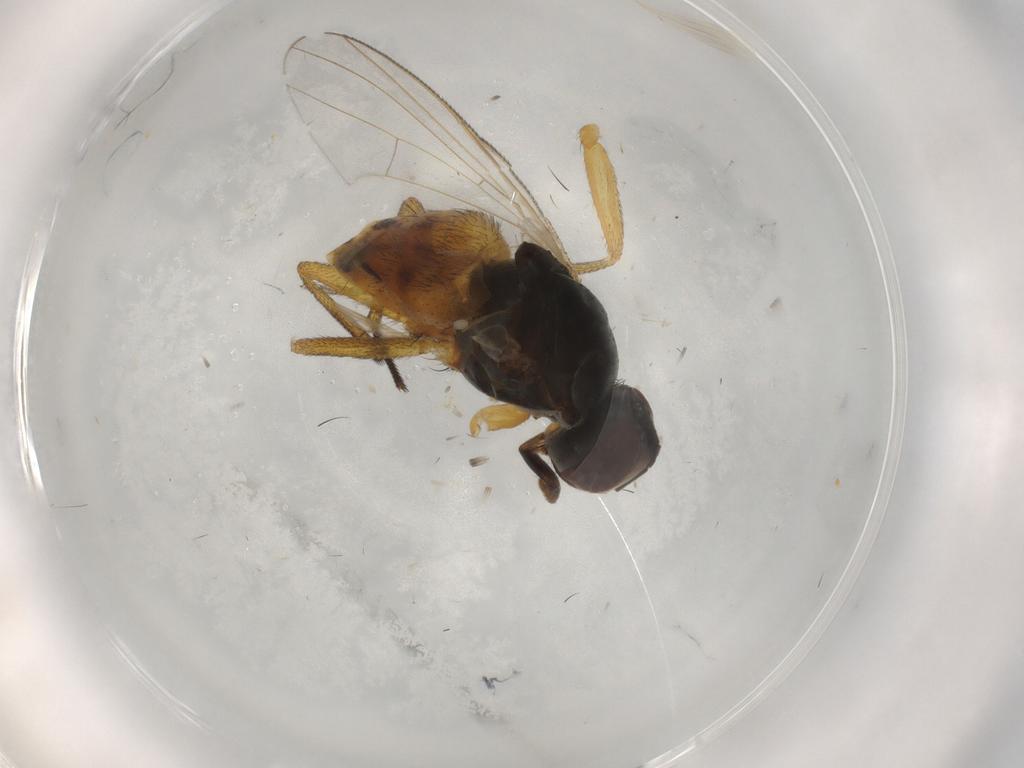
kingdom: Animalia
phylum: Arthropoda
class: Insecta
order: Diptera
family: Muscidae
